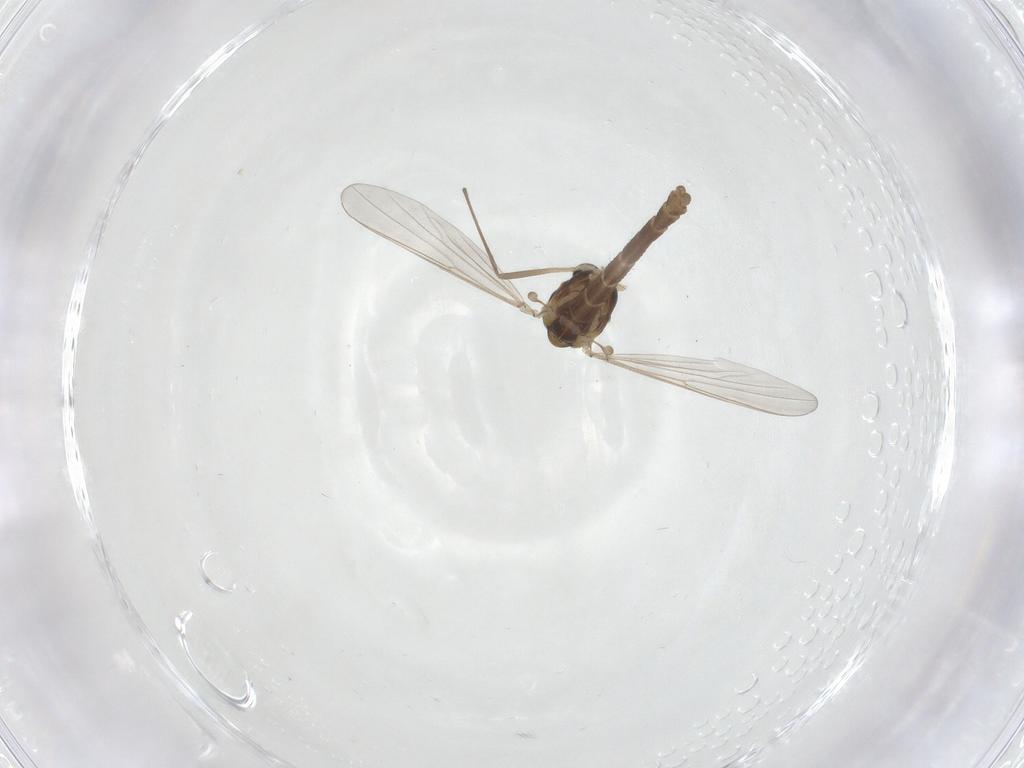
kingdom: Animalia
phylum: Arthropoda
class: Insecta
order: Diptera
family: Chironomidae
